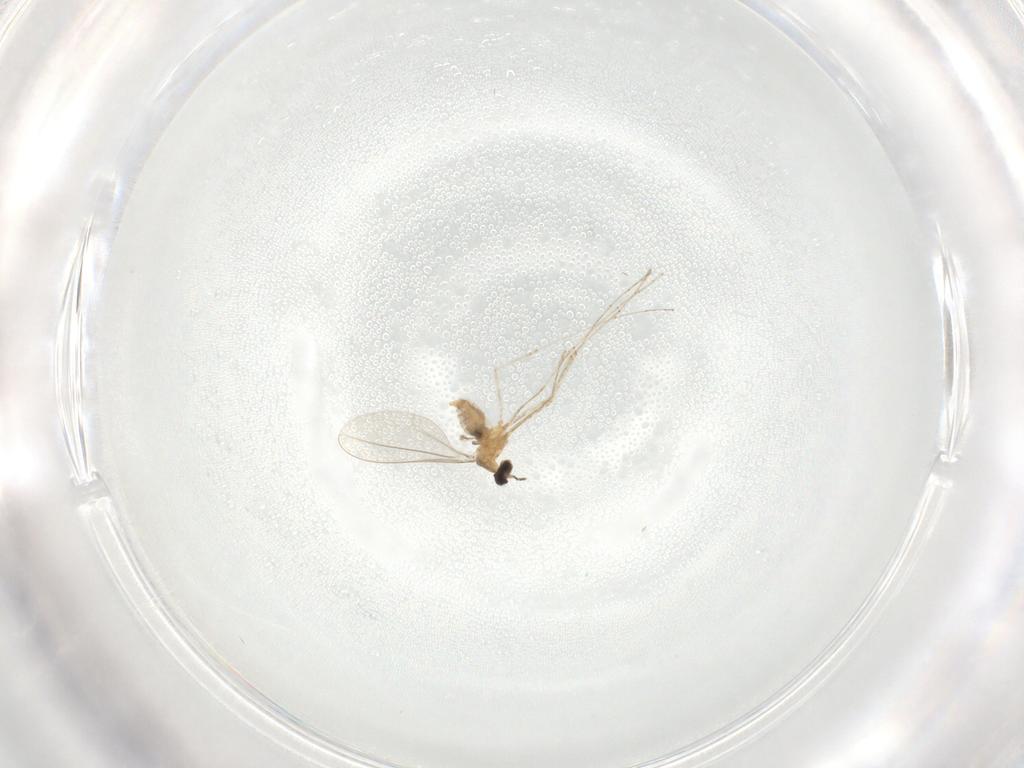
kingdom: Animalia
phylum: Arthropoda
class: Insecta
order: Diptera
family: Cecidomyiidae
